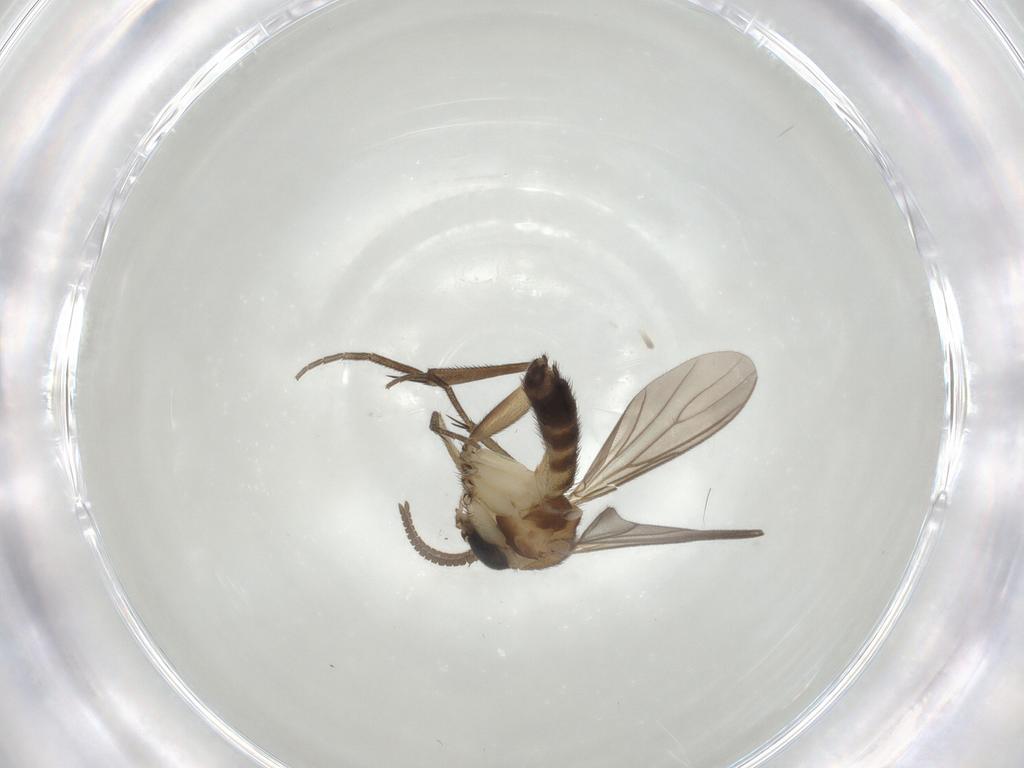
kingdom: Animalia
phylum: Arthropoda
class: Insecta
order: Diptera
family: Mycetophilidae
